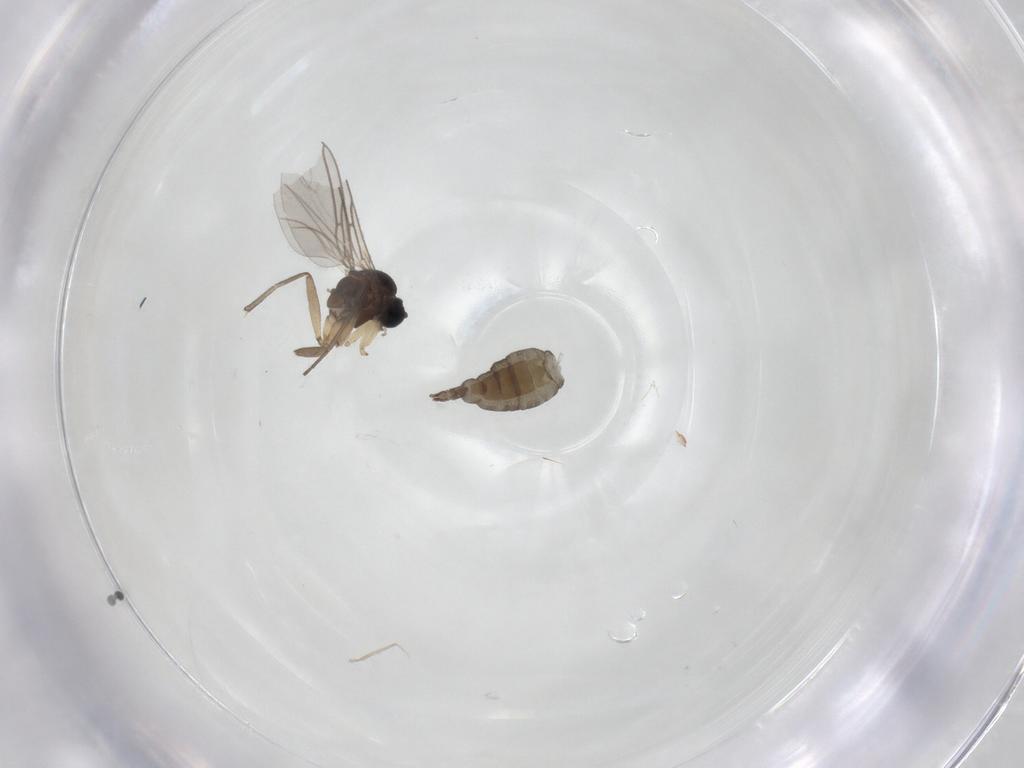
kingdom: Animalia
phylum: Arthropoda
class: Insecta
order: Diptera
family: Sciaridae
